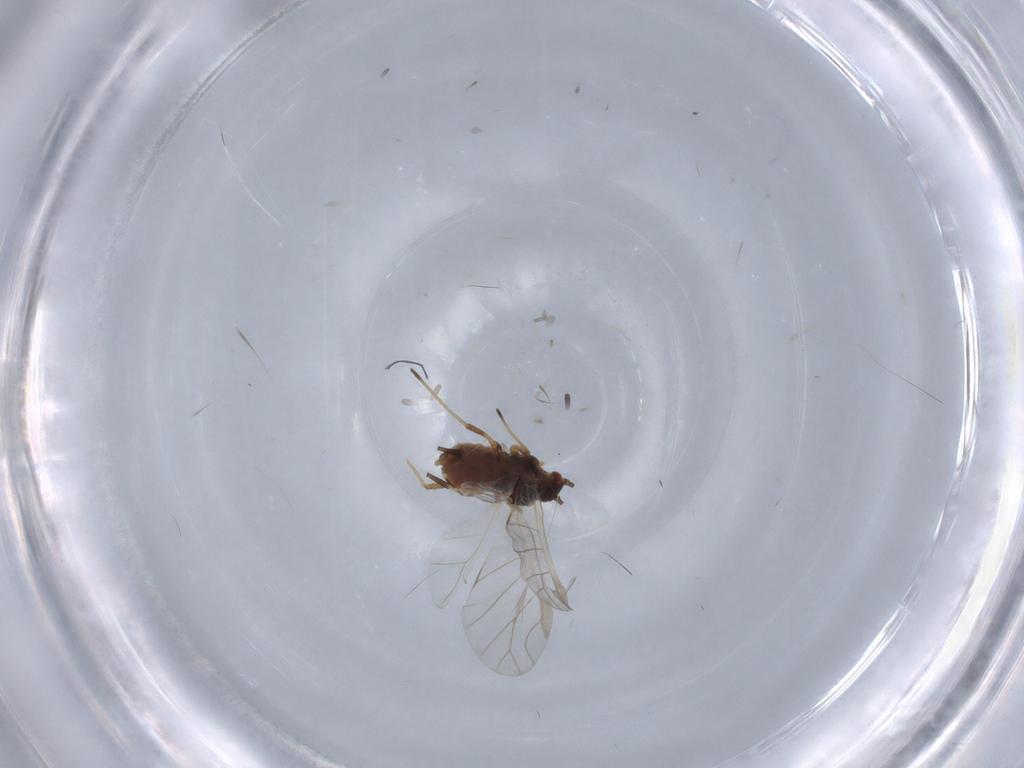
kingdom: Animalia
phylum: Arthropoda
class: Insecta
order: Hemiptera
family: Aphididae
